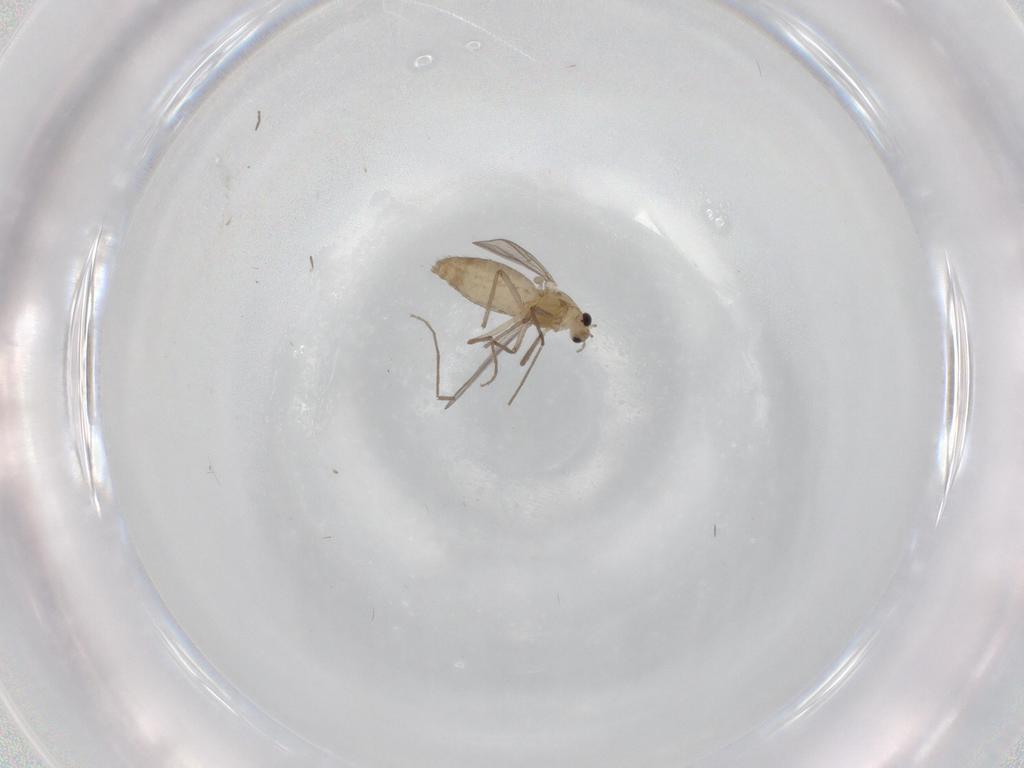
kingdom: Animalia
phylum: Arthropoda
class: Insecta
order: Diptera
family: Chironomidae
